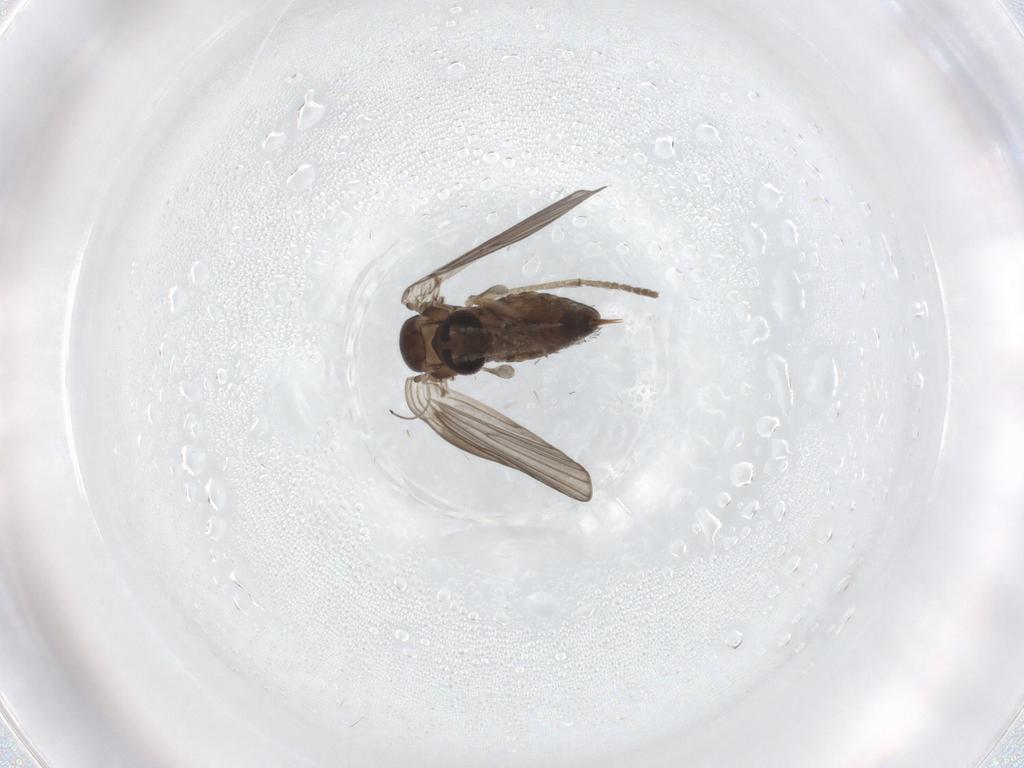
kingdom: Animalia
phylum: Arthropoda
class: Insecta
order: Diptera
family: Psychodidae
